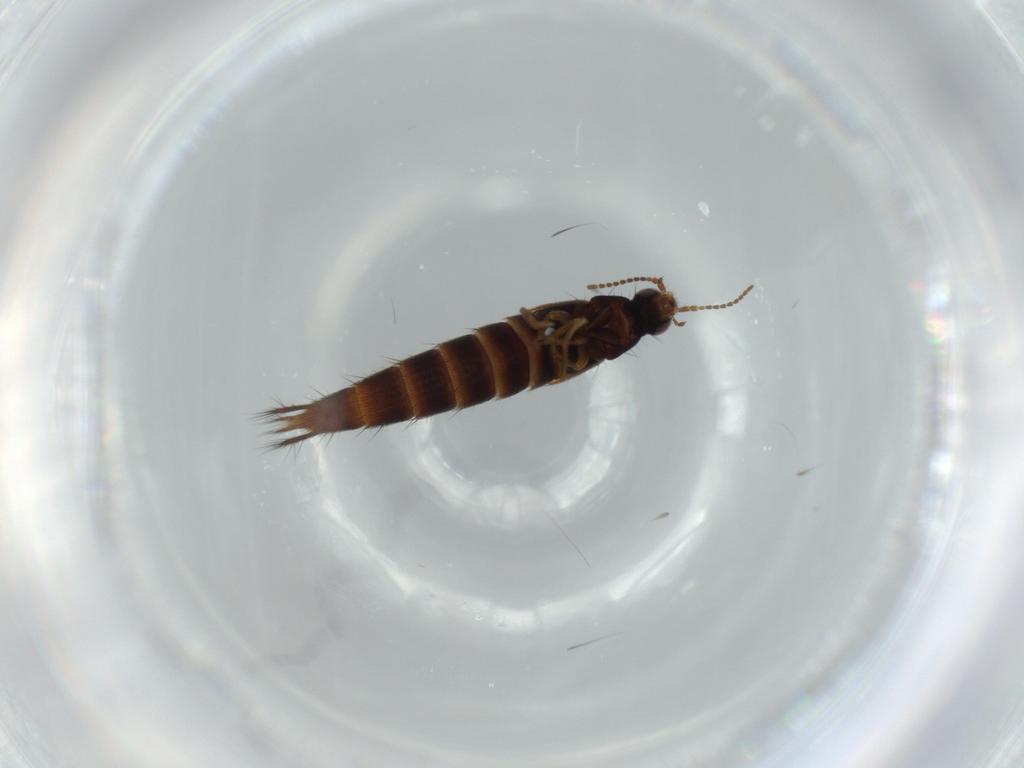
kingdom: Animalia
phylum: Arthropoda
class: Insecta
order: Coleoptera
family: Staphylinidae
